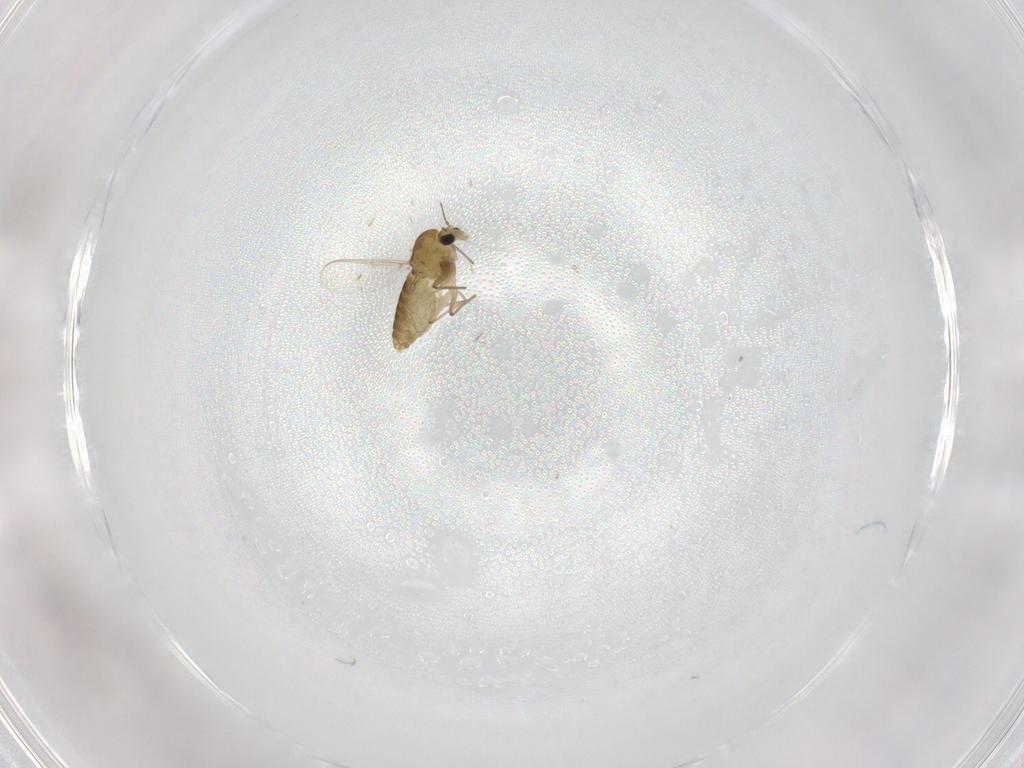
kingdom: Animalia
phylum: Arthropoda
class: Insecta
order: Diptera
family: Chironomidae
